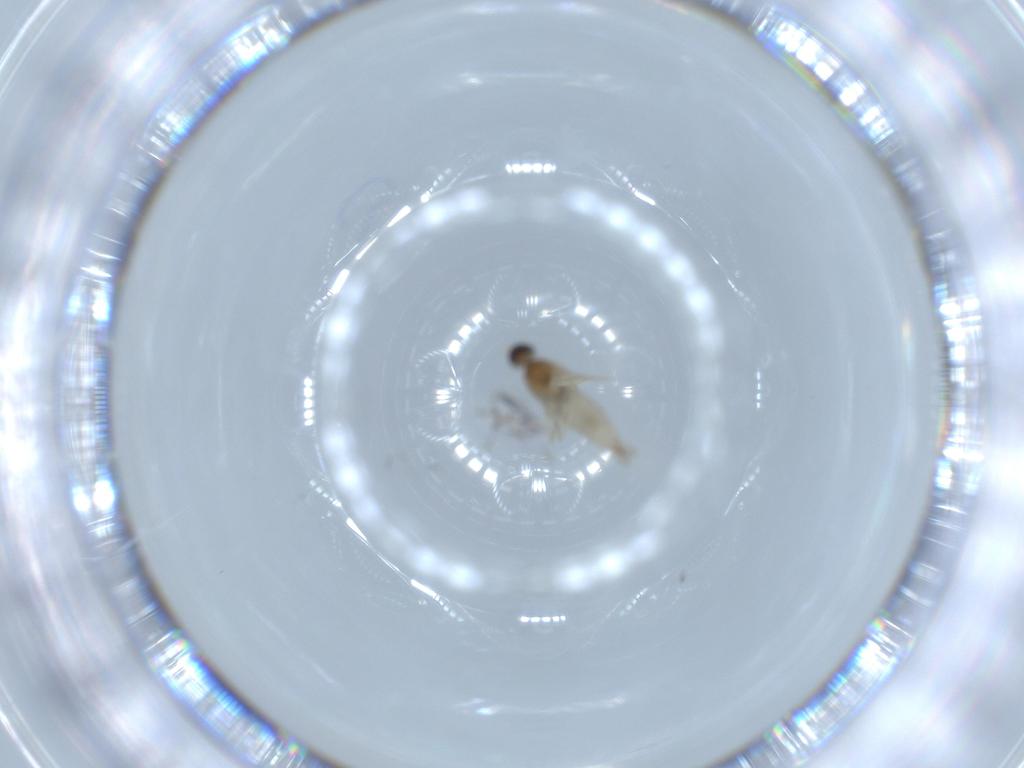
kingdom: Animalia
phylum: Arthropoda
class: Insecta
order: Diptera
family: Cecidomyiidae
